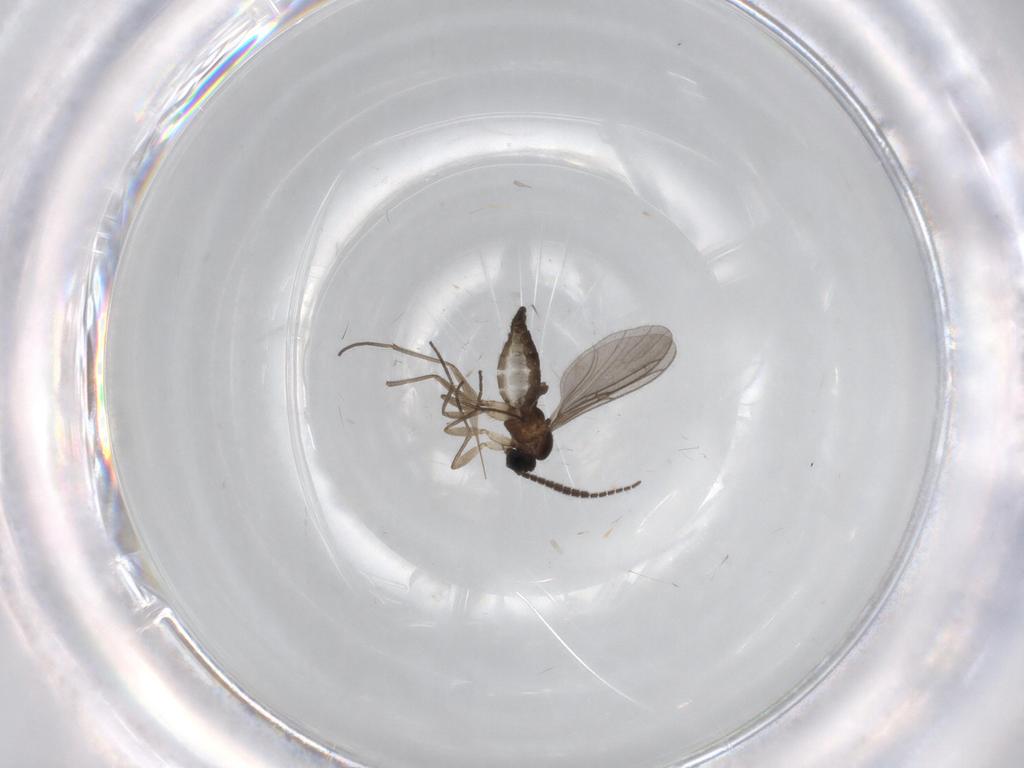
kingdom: Animalia
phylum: Arthropoda
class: Insecta
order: Diptera
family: Sciaridae
